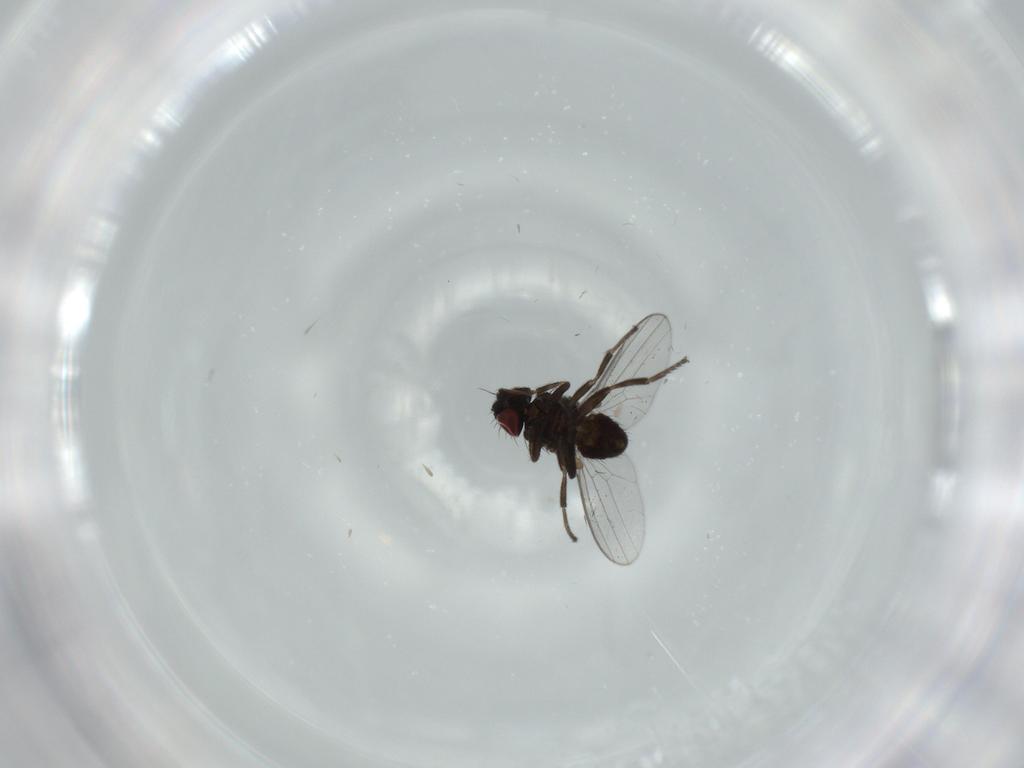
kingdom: Animalia
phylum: Arthropoda
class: Insecta
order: Diptera
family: Milichiidae
